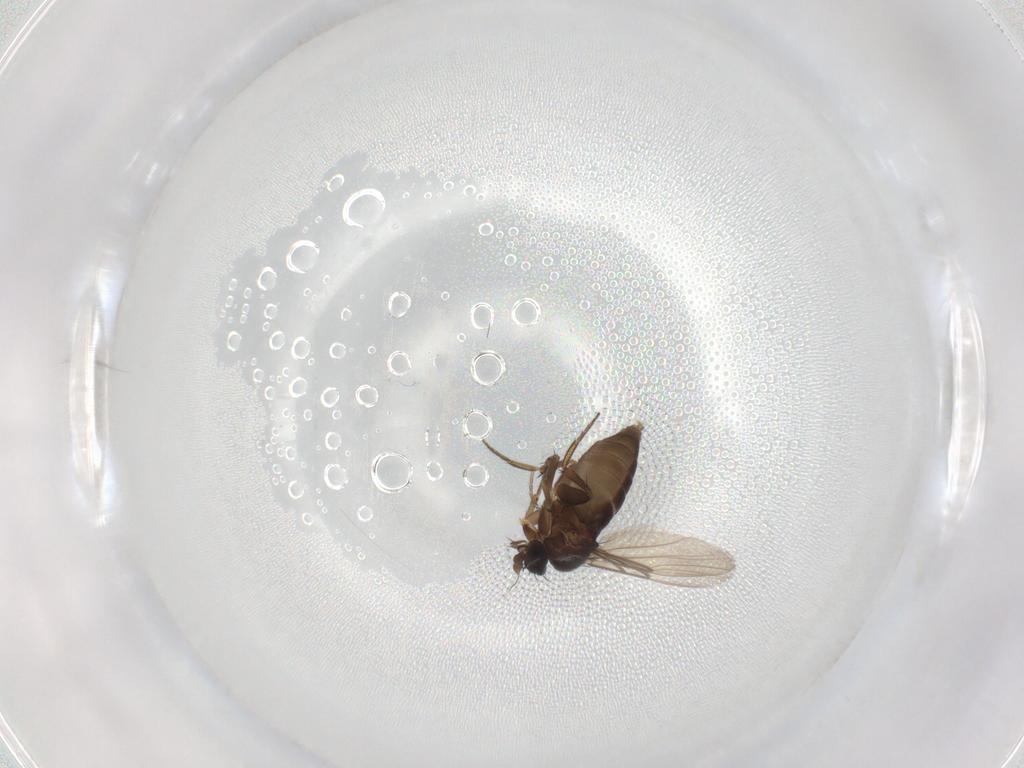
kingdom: Animalia
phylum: Arthropoda
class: Insecta
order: Diptera
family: Phoridae
